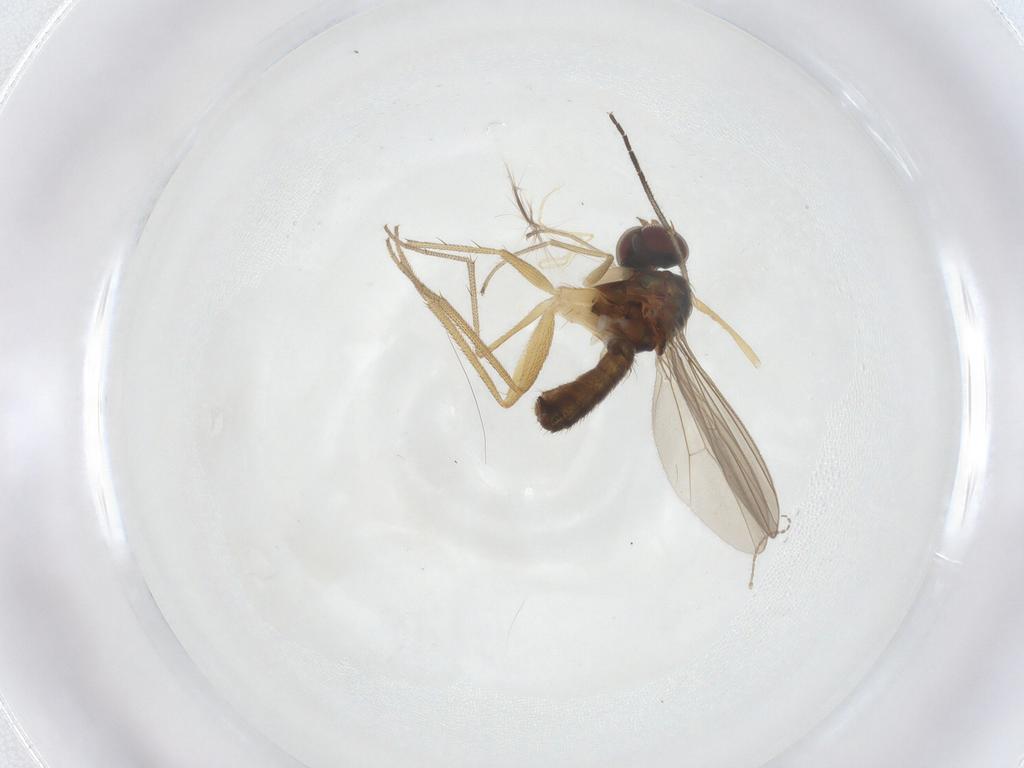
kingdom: Animalia
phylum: Arthropoda
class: Insecta
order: Diptera
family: Dolichopodidae
